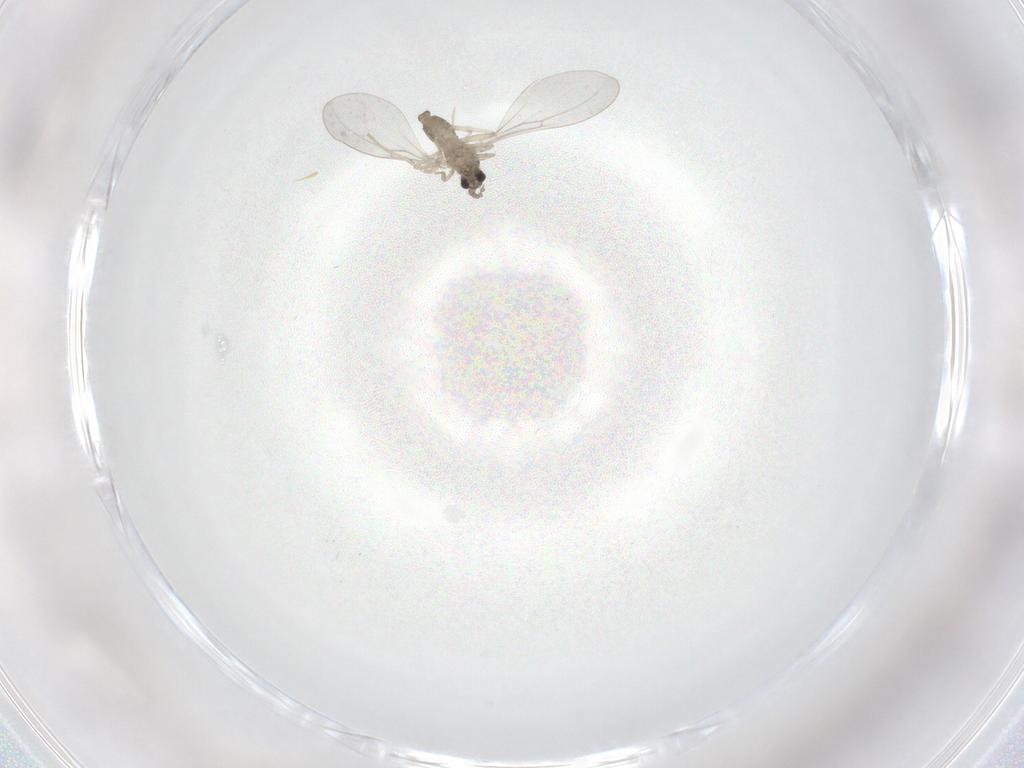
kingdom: Animalia
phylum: Arthropoda
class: Insecta
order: Diptera
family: Cecidomyiidae
